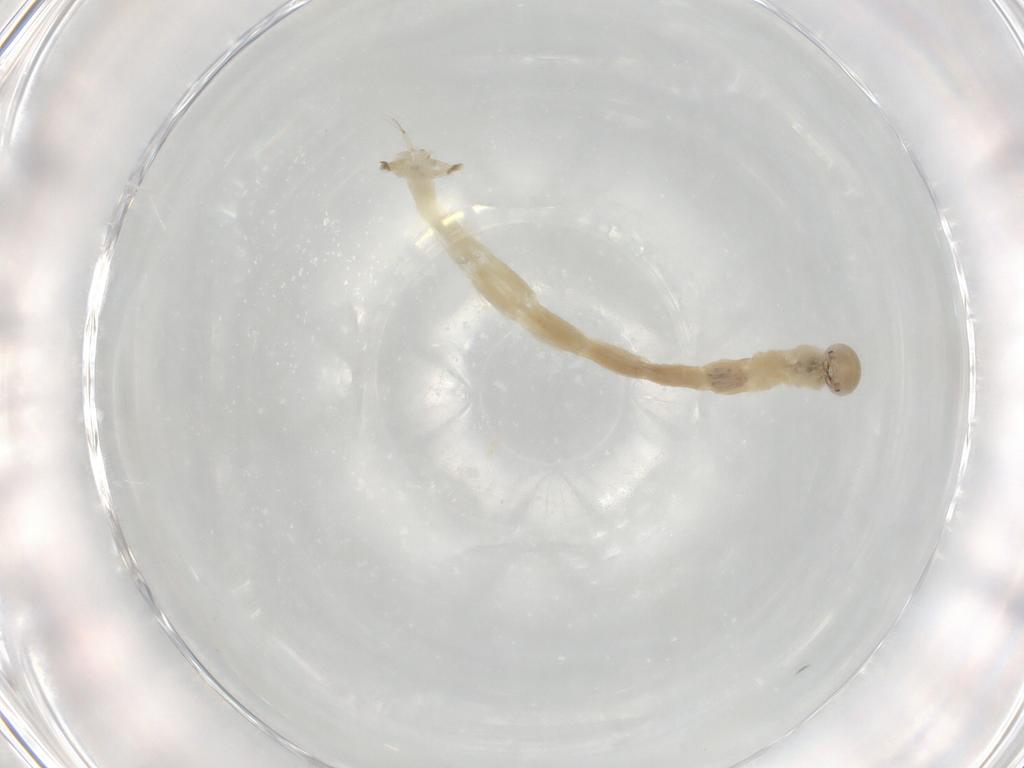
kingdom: Animalia
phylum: Arthropoda
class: Insecta
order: Diptera
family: Chironomidae
